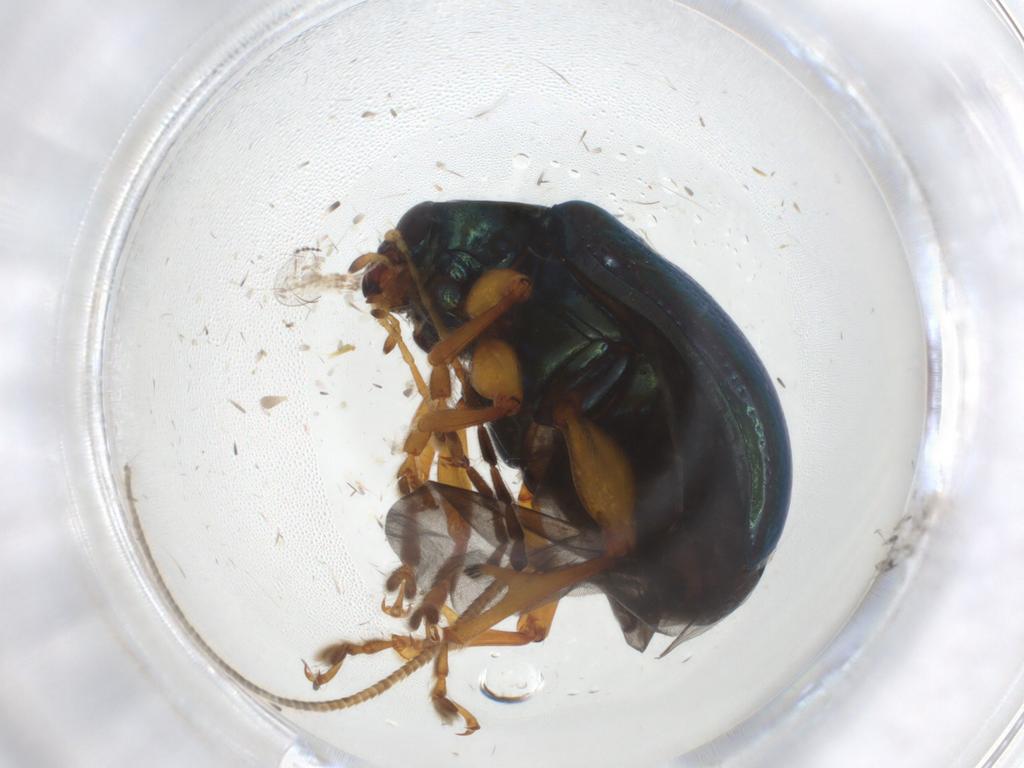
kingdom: Animalia
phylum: Arthropoda
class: Insecta
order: Coleoptera
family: Chrysomelidae
